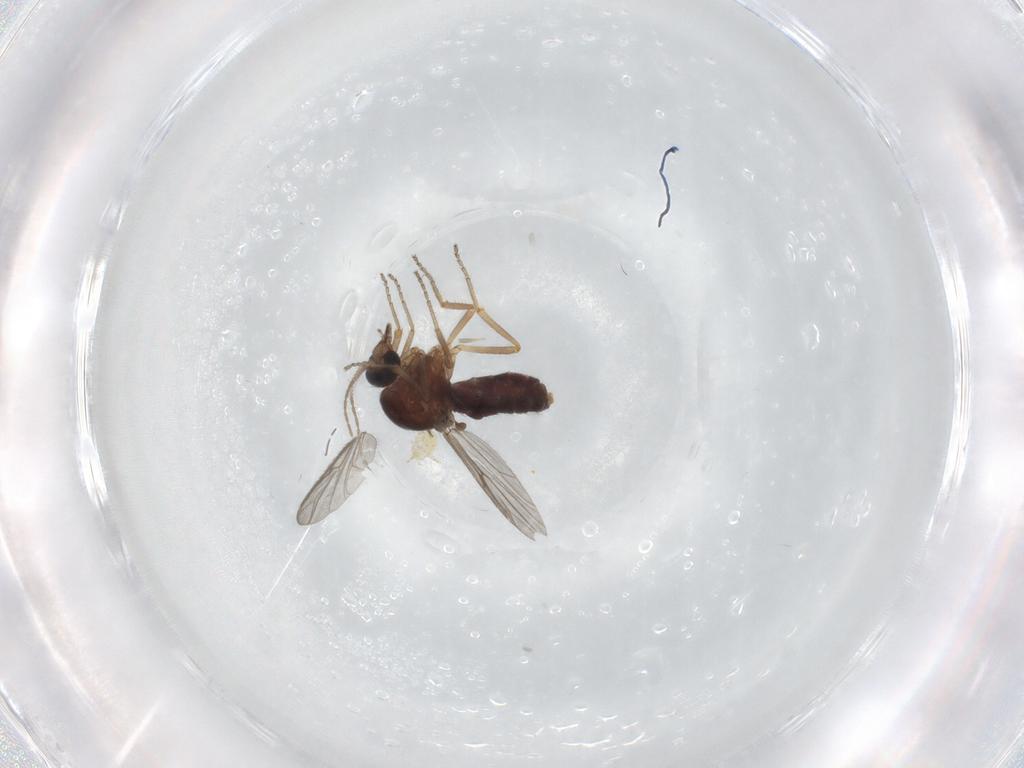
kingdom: Animalia
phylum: Arthropoda
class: Insecta
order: Diptera
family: Ceratopogonidae
